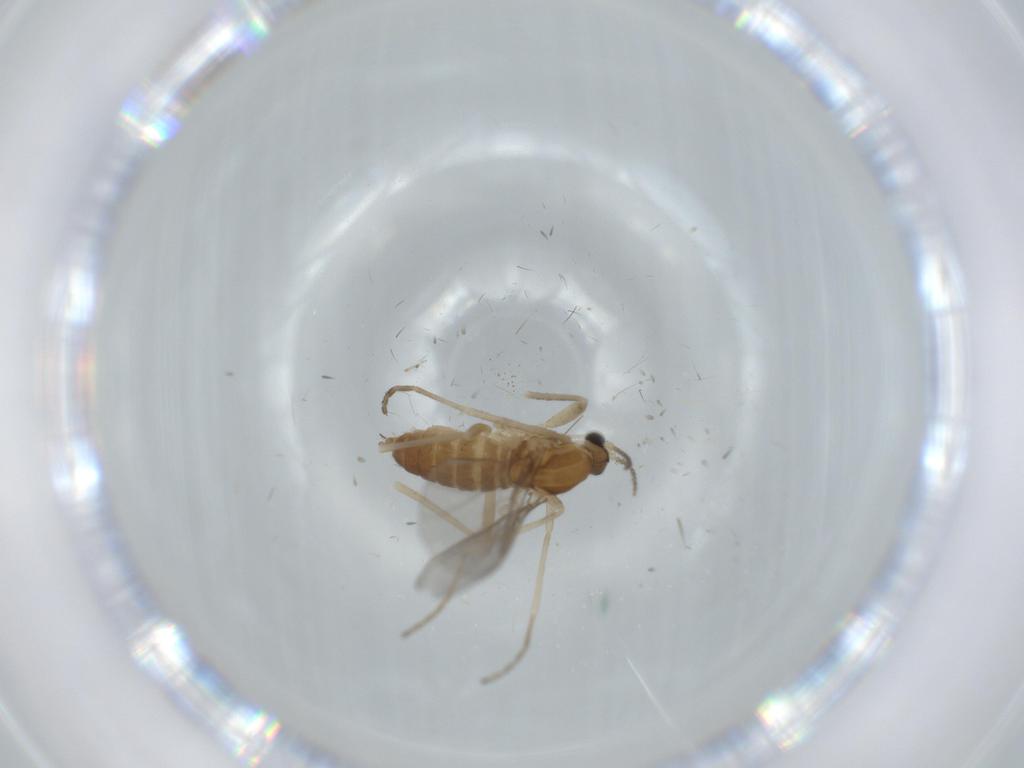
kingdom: Animalia
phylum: Arthropoda
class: Insecta
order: Diptera
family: Cecidomyiidae
